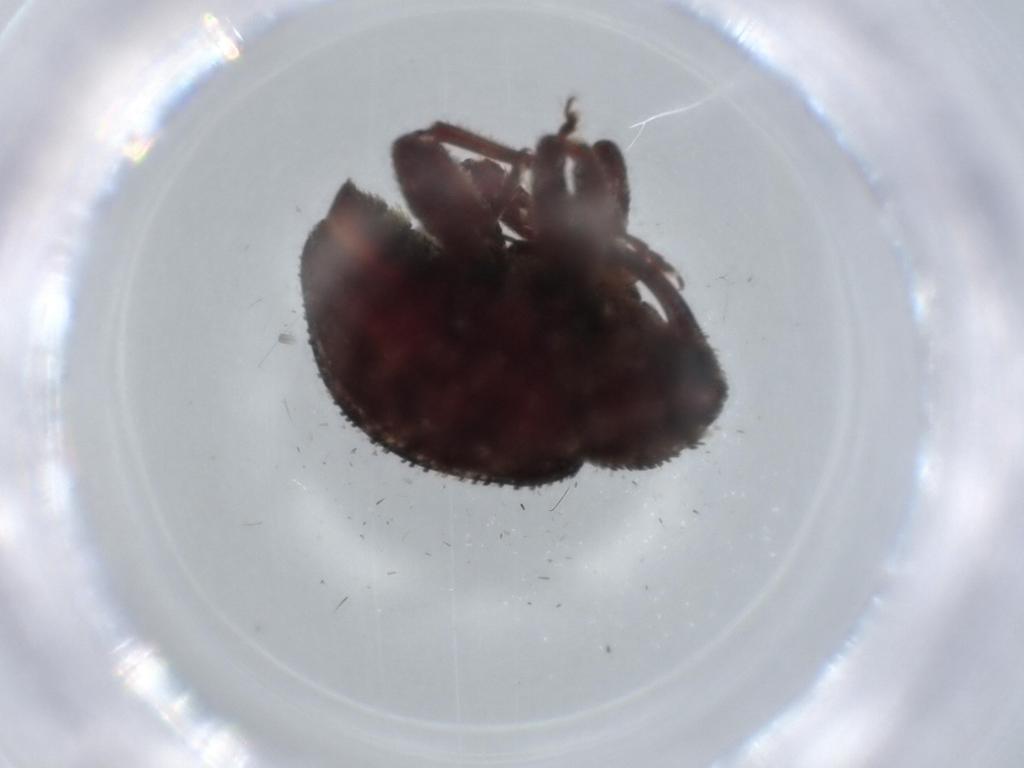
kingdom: Animalia
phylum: Arthropoda
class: Insecta
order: Coleoptera
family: Curculionidae
